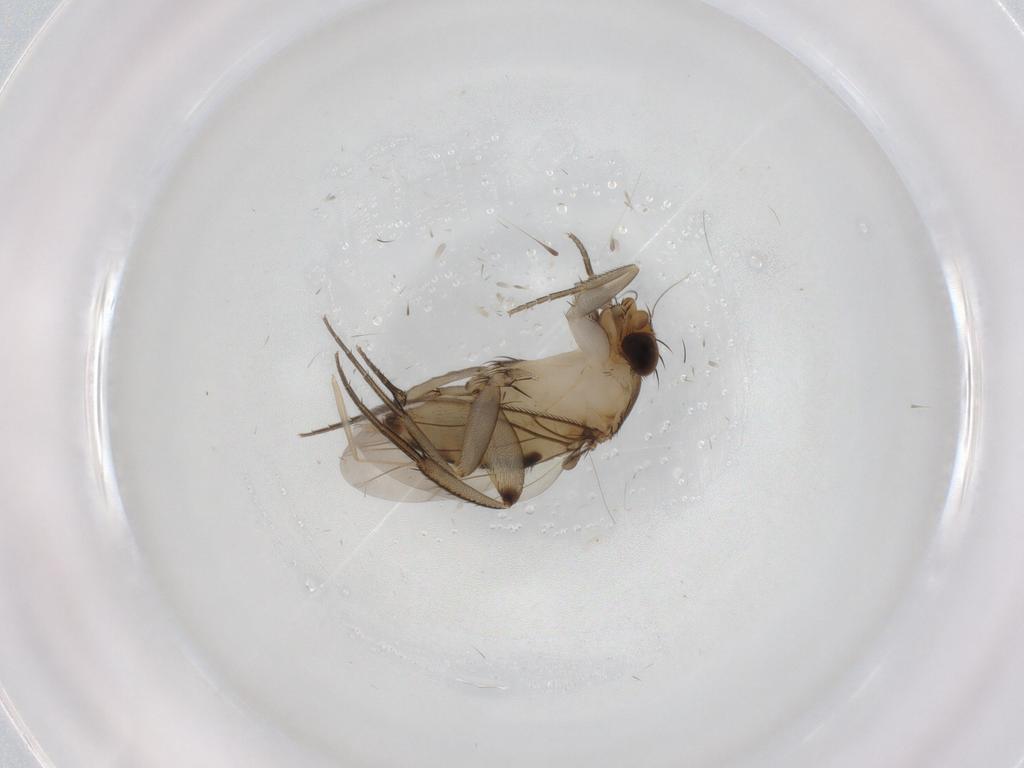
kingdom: Animalia
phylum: Arthropoda
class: Insecta
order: Diptera
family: Phoridae
